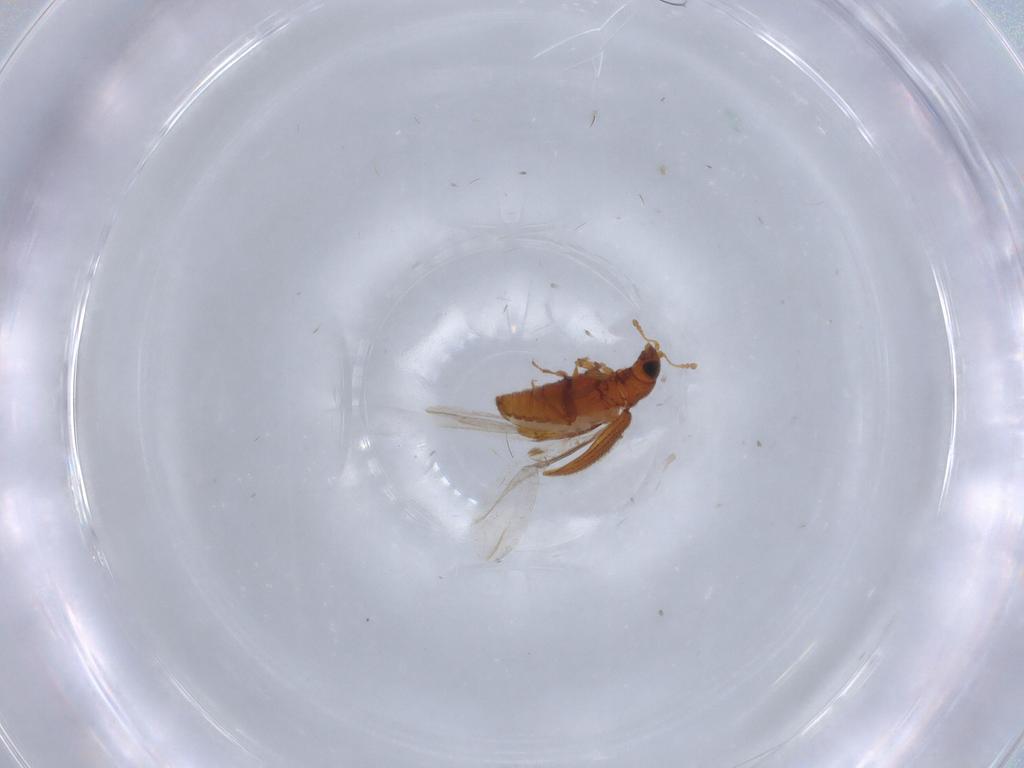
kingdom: Animalia
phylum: Arthropoda
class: Insecta
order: Coleoptera
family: Latridiidae
